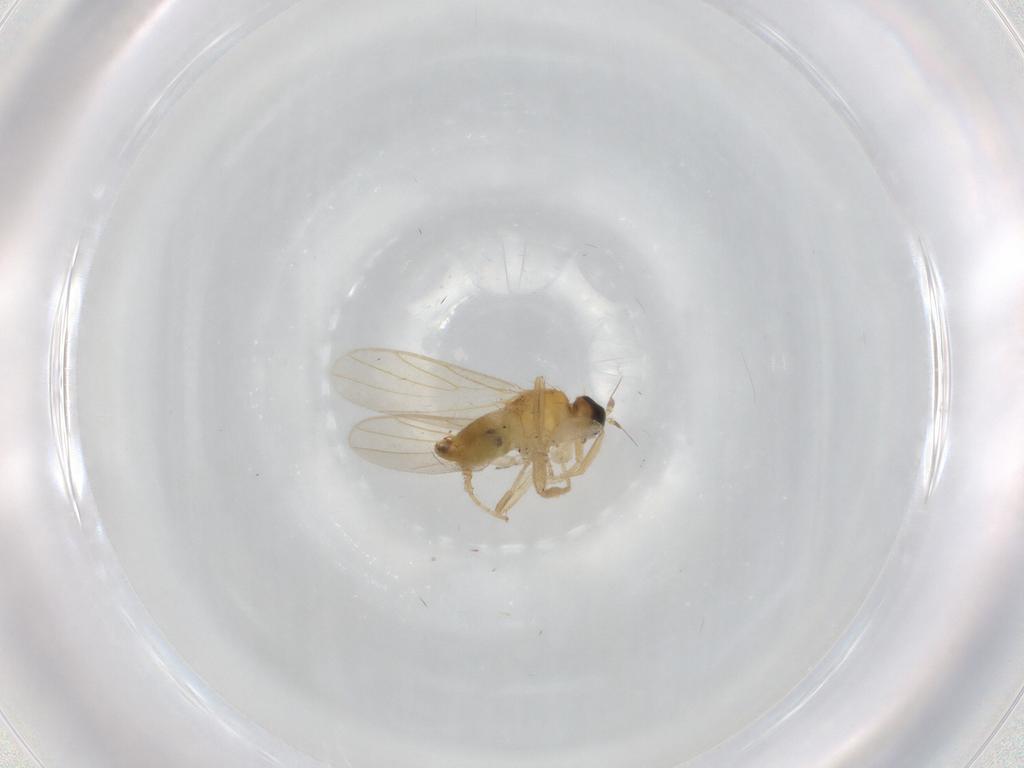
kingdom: Animalia
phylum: Arthropoda
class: Insecta
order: Diptera
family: Hybotidae
